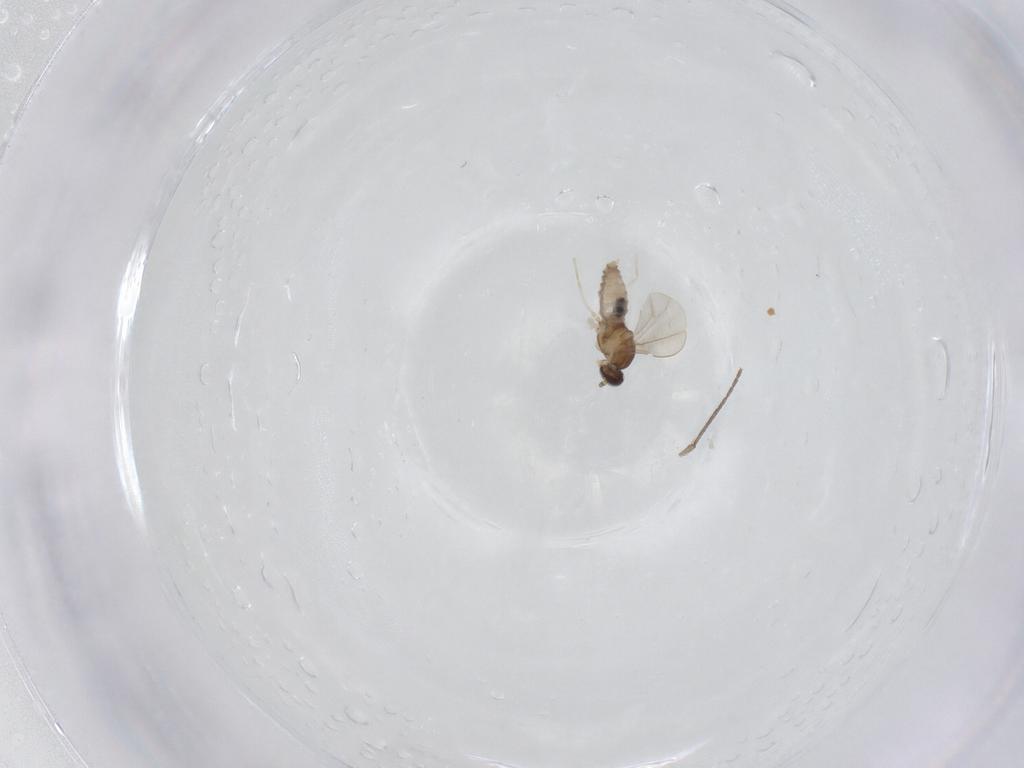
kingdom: Animalia
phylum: Arthropoda
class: Insecta
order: Diptera
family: Cecidomyiidae
